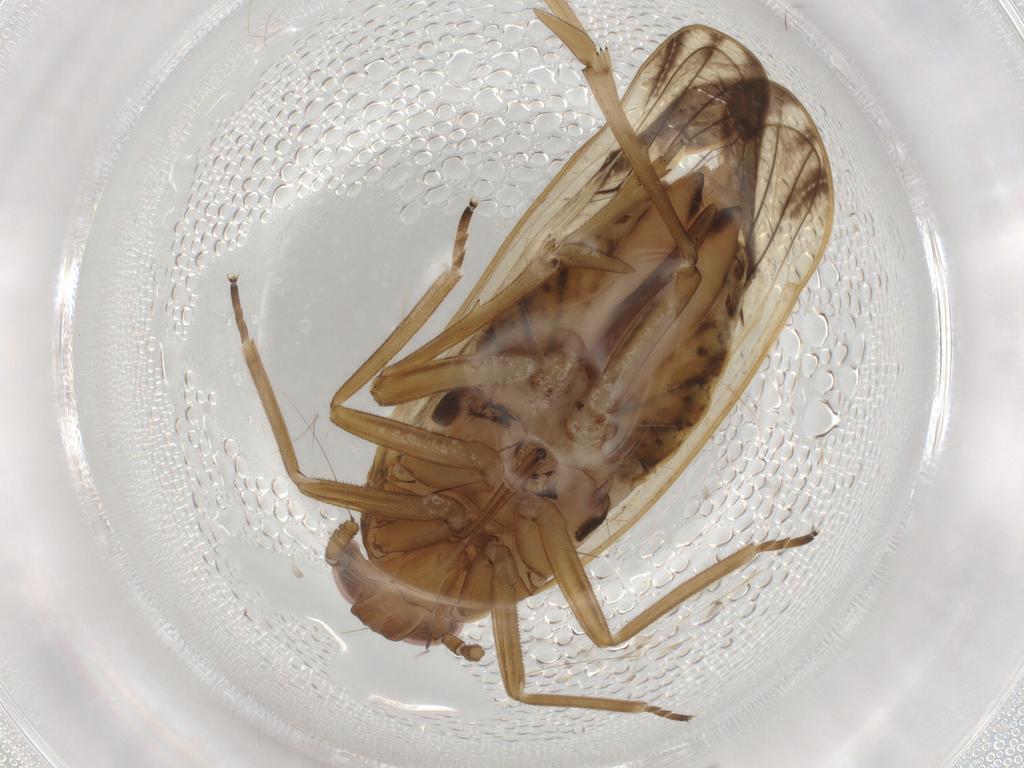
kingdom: Animalia
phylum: Arthropoda
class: Insecta
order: Hemiptera
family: Delphacidae
